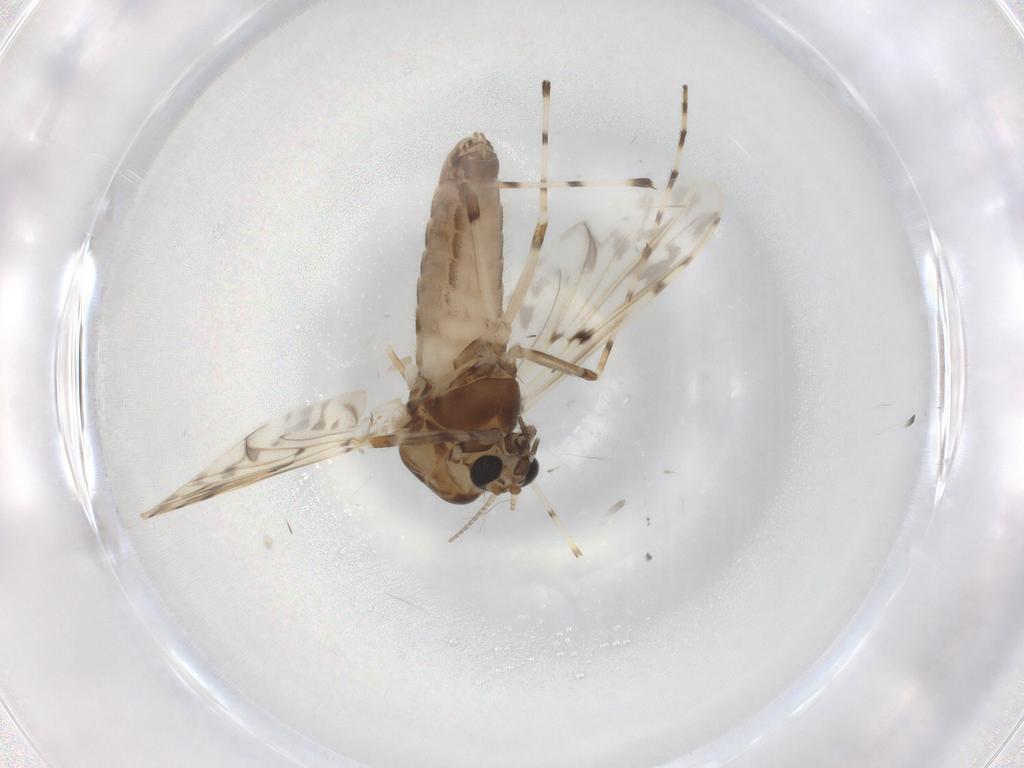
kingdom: Animalia
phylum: Arthropoda
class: Insecta
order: Diptera
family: Chironomidae
